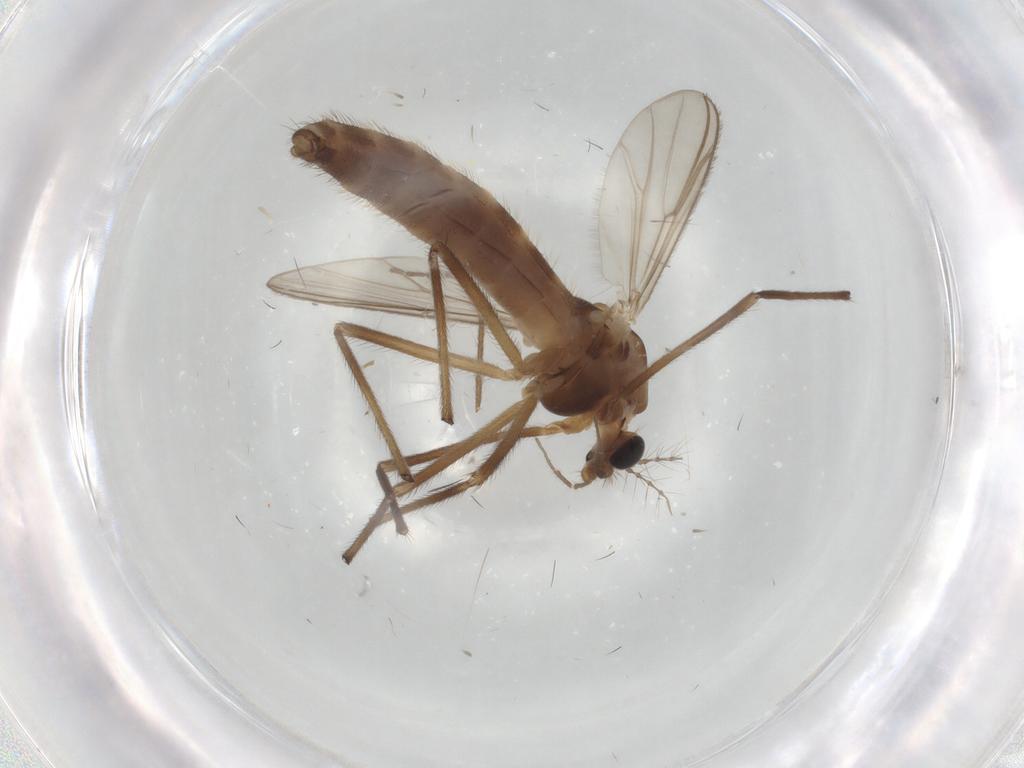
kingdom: Animalia
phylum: Arthropoda
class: Insecta
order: Diptera
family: Chironomidae
